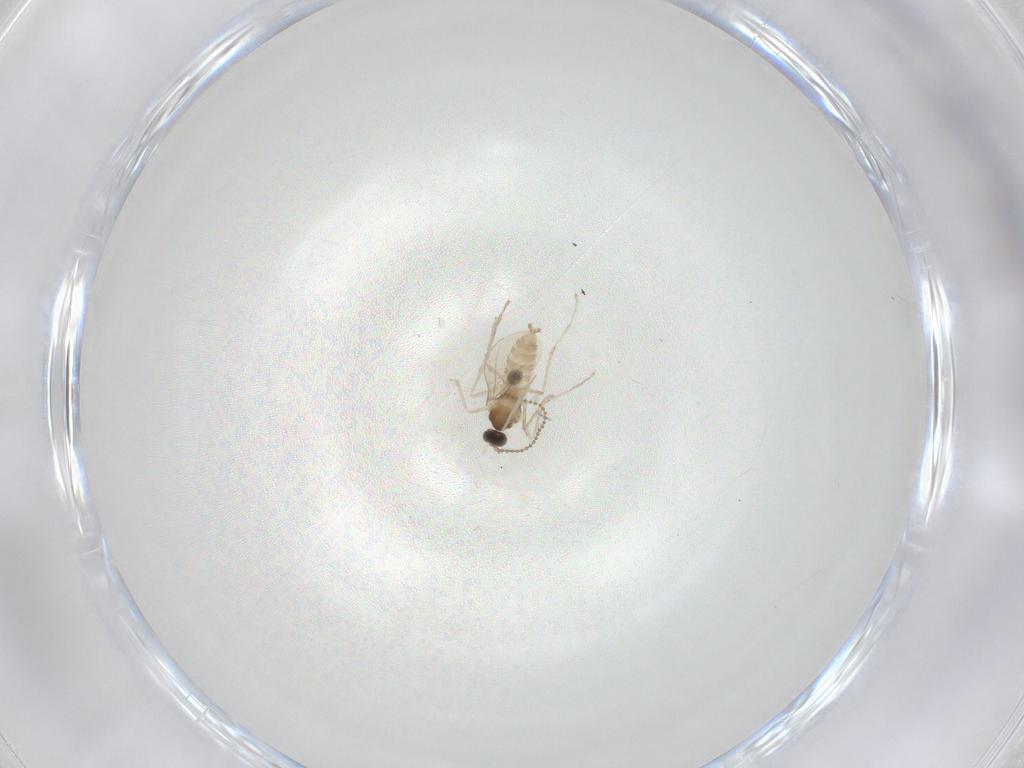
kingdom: Animalia
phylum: Arthropoda
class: Insecta
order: Diptera
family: Cecidomyiidae
